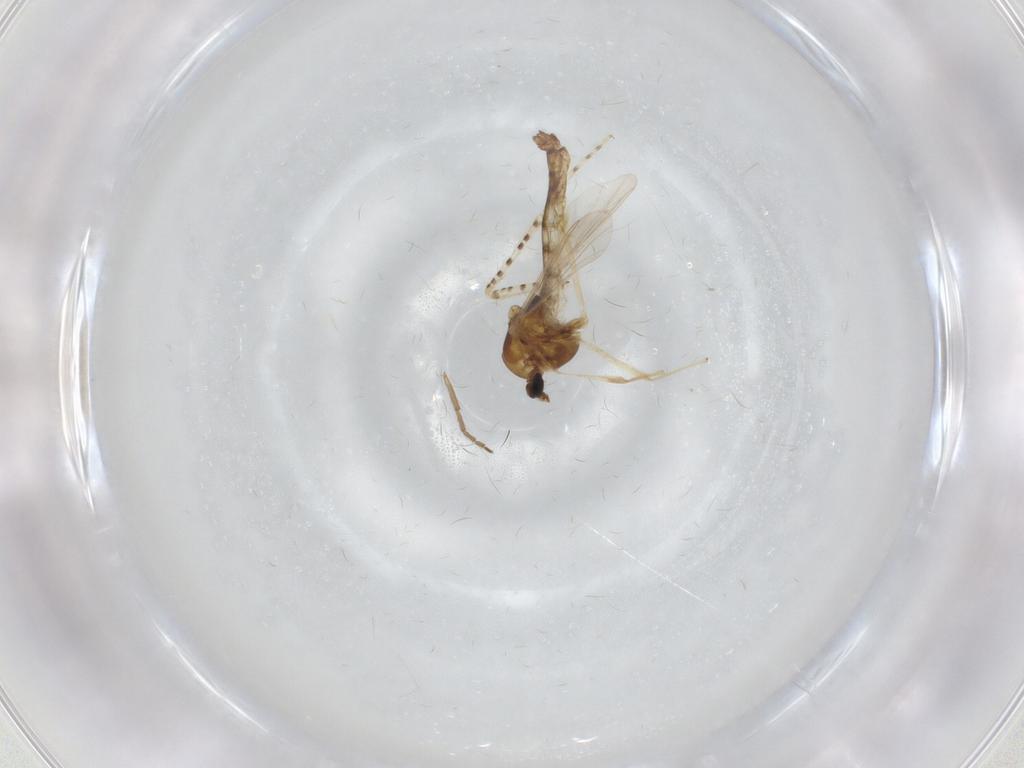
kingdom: Animalia
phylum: Arthropoda
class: Insecta
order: Diptera
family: Chironomidae
